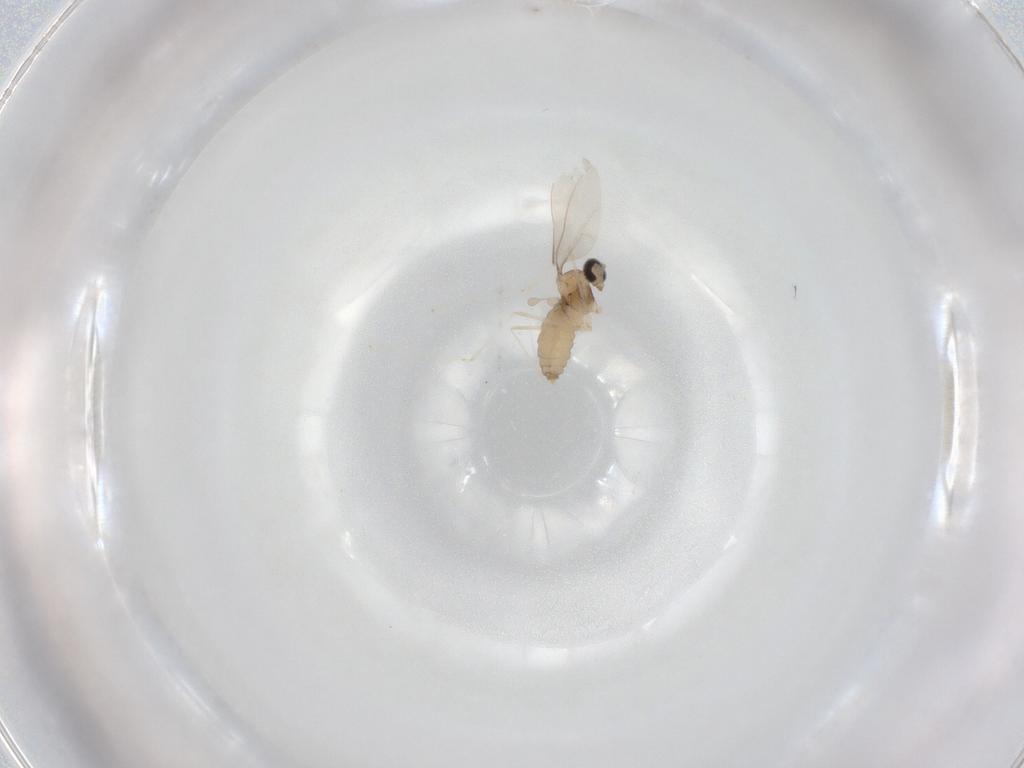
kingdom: Animalia
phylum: Arthropoda
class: Insecta
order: Diptera
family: Cecidomyiidae
